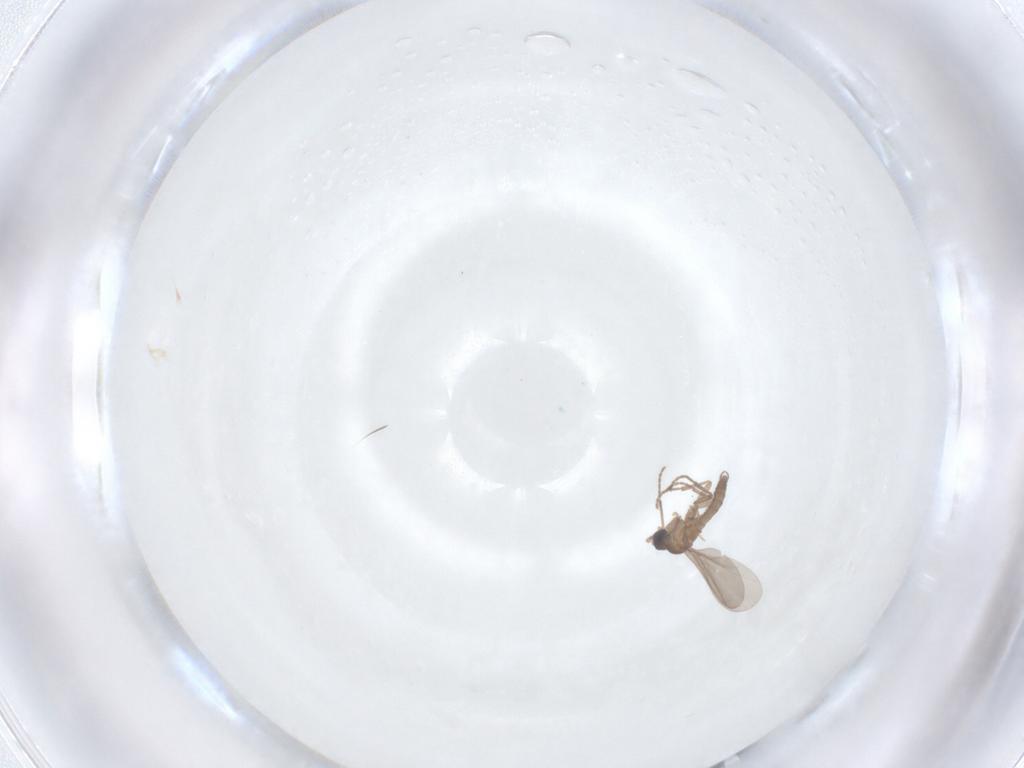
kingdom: Animalia
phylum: Arthropoda
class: Insecta
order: Diptera
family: Sciaridae
